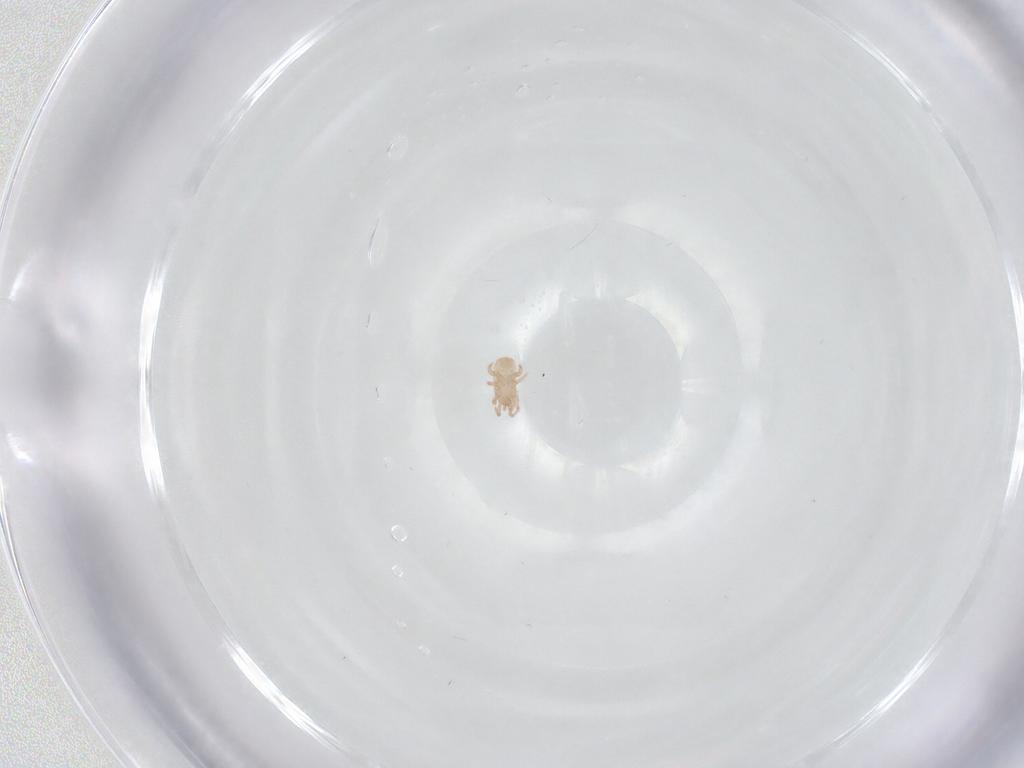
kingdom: Animalia
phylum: Arthropoda
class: Arachnida
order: Mesostigmata
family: Digamasellidae
